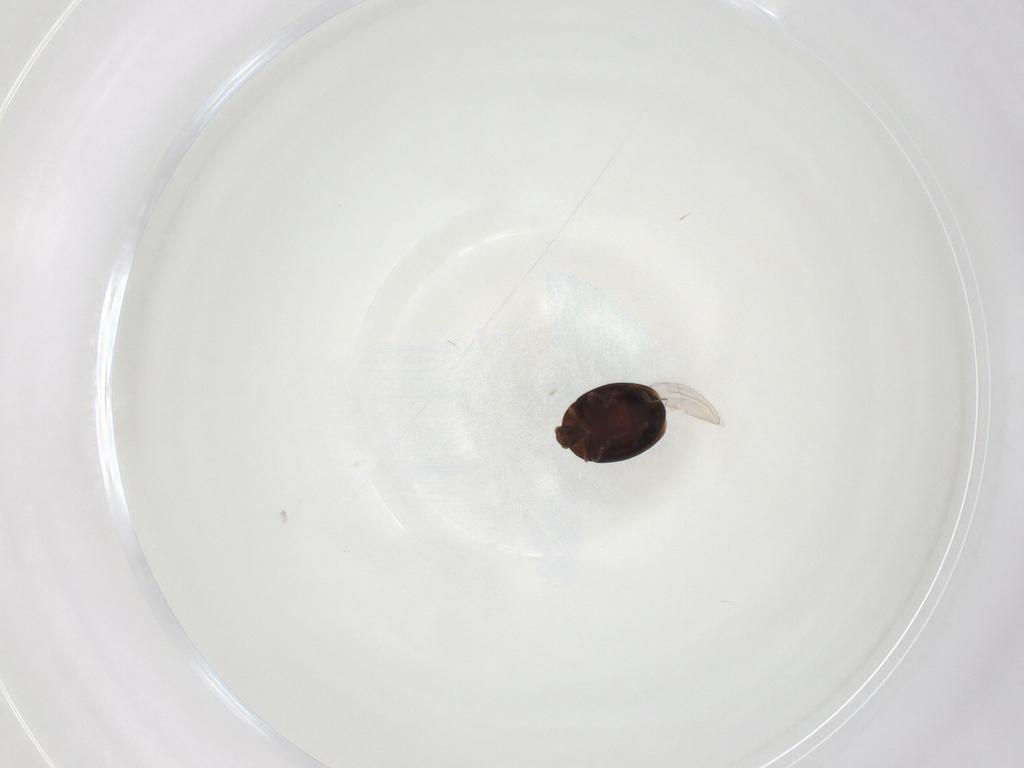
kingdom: Animalia
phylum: Arthropoda
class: Insecta
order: Coleoptera
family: Corylophidae
